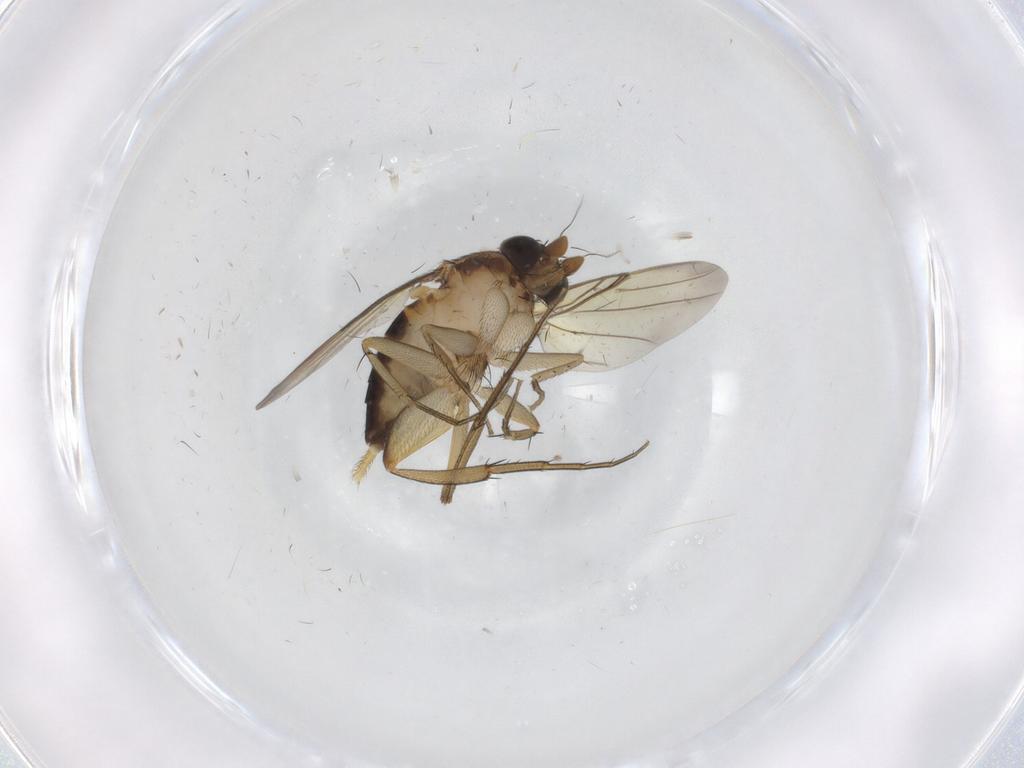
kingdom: Animalia
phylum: Arthropoda
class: Insecta
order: Diptera
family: Phoridae
